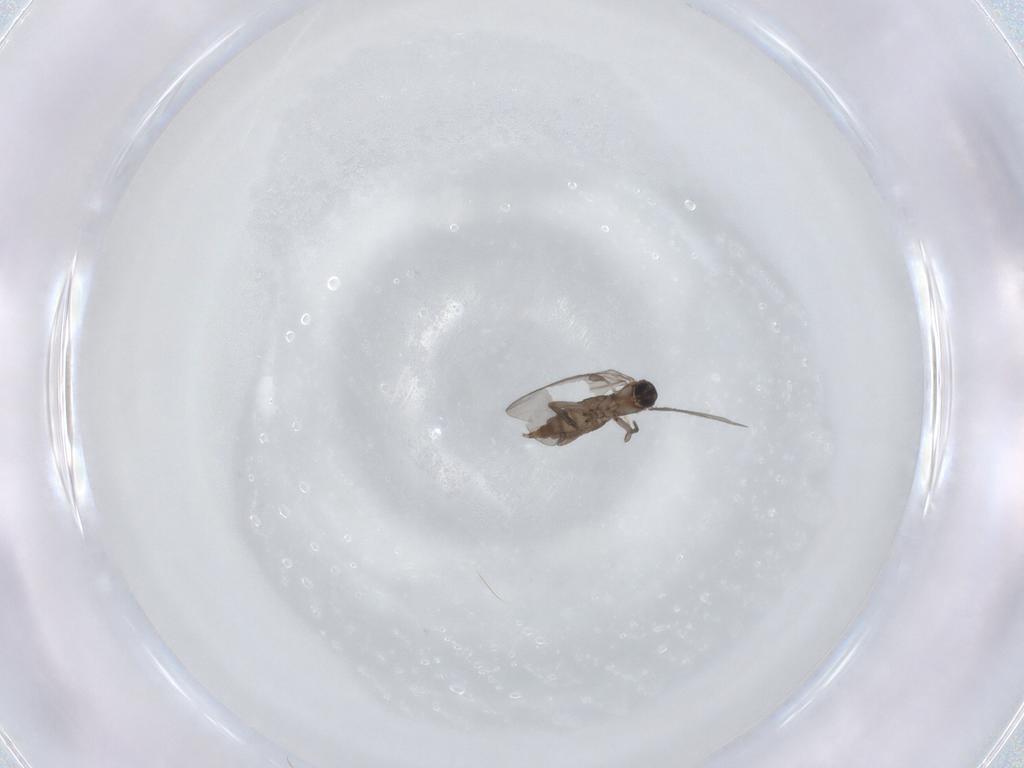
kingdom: Animalia
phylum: Arthropoda
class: Insecta
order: Diptera
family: Sciaridae
